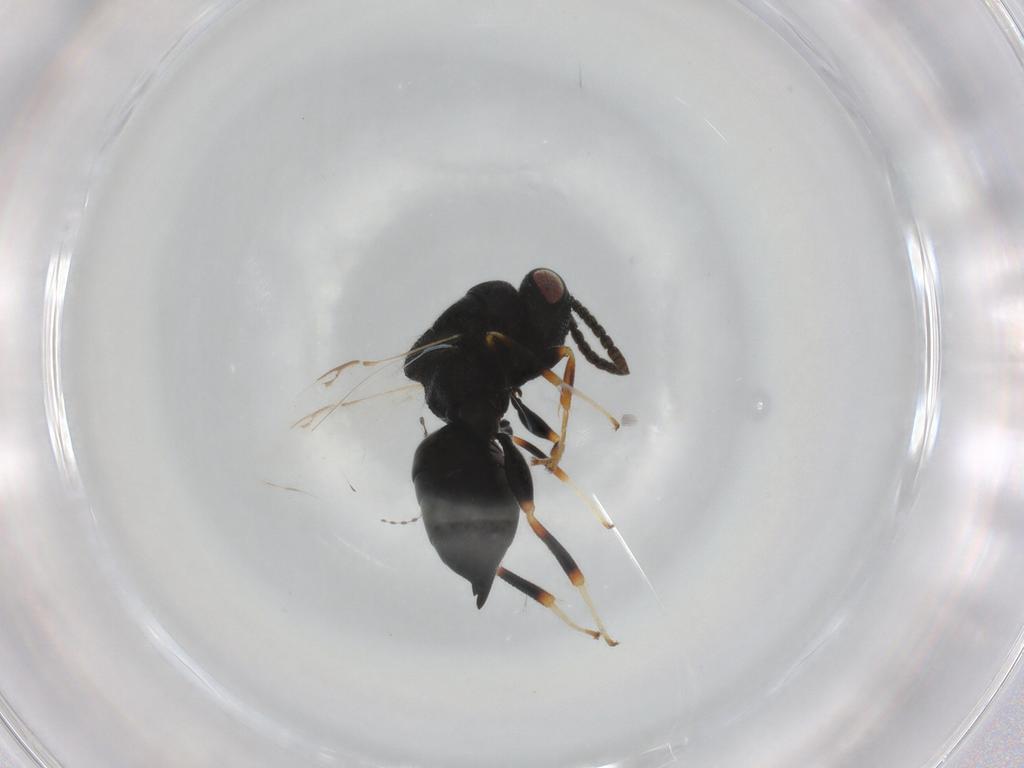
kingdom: Animalia
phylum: Arthropoda
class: Insecta
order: Hymenoptera
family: Eurytomidae
